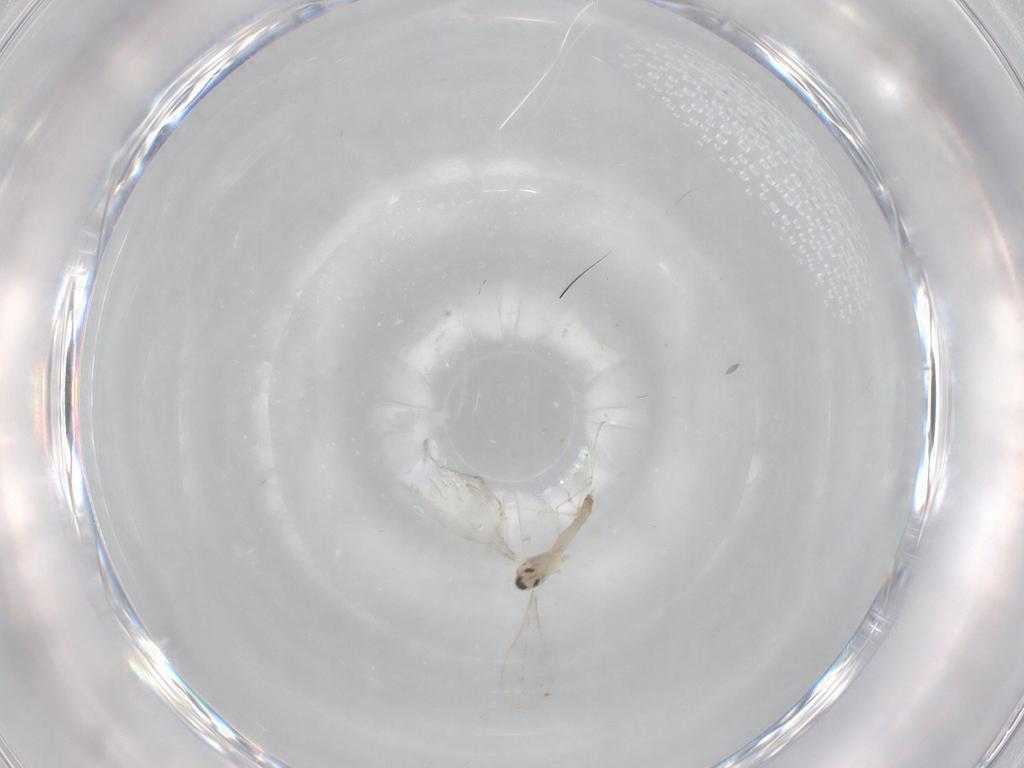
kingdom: Animalia
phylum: Arthropoda
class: Insecta
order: Diptera
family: Cecidomyiidae
